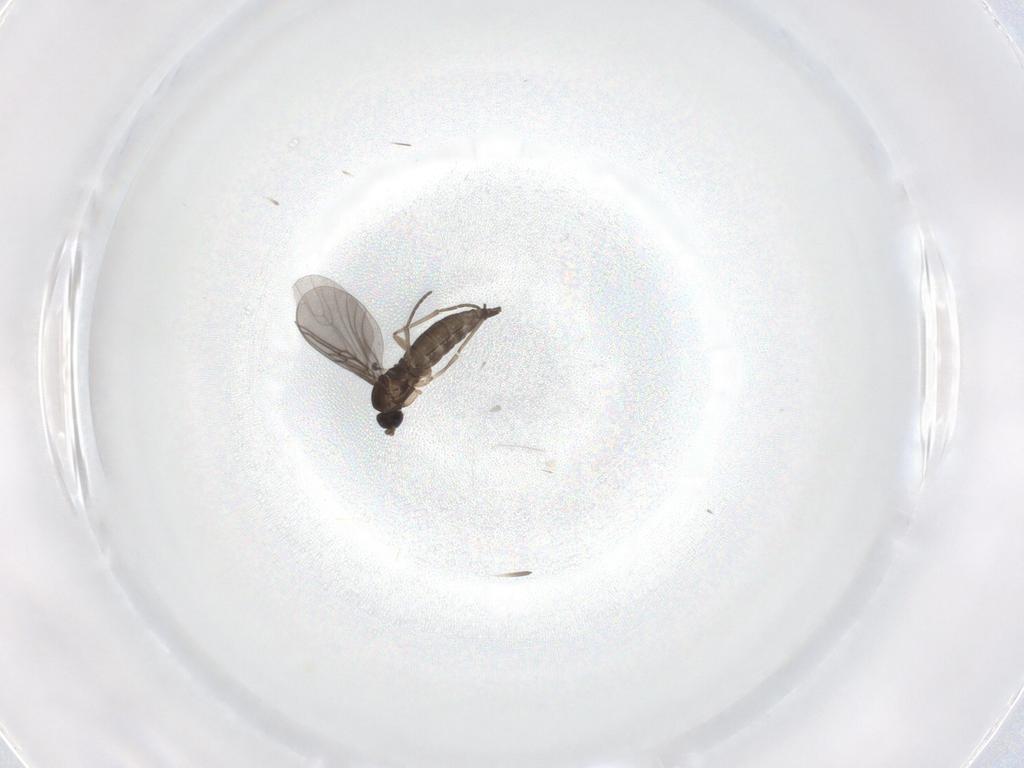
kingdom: Animalia
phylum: Arthropoda
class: Insecta
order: Diptera
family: Sciaridae
